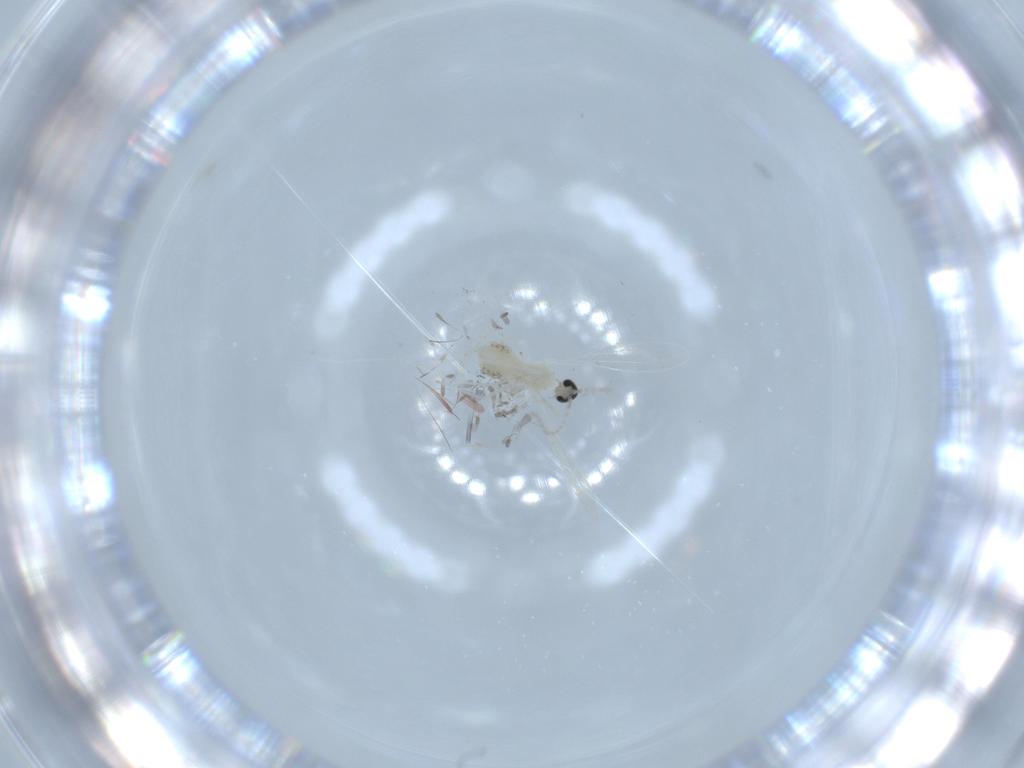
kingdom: Animalia
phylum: Arthropoda
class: Insecta
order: Diptera
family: Cecidomyiidae
